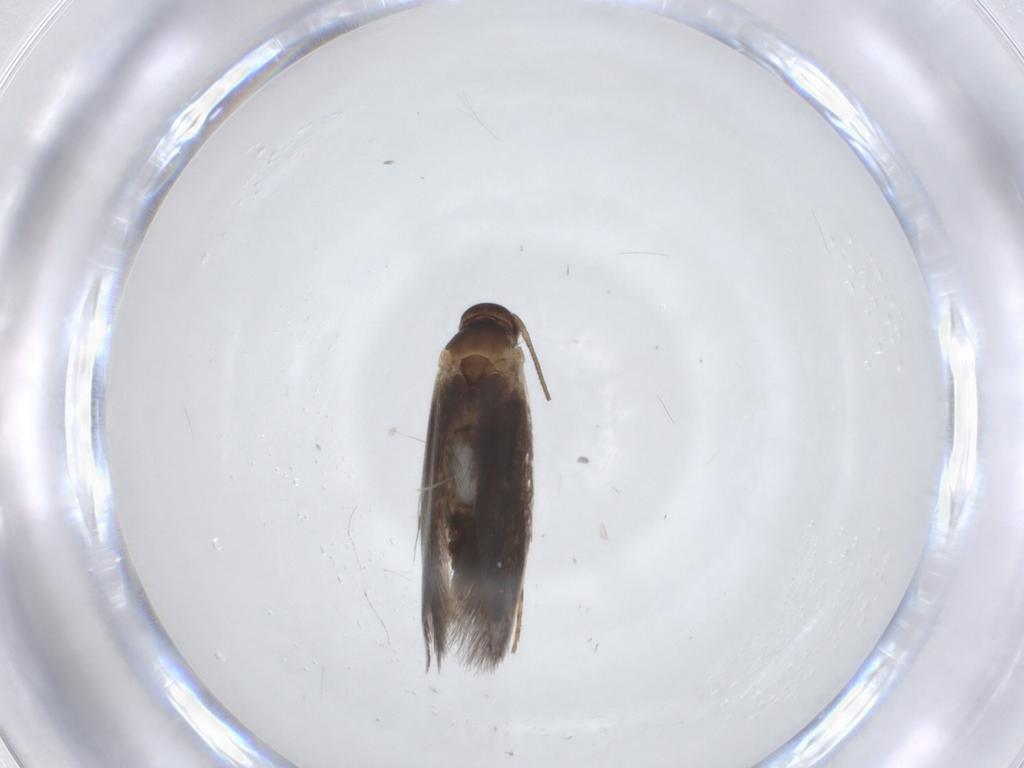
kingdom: Animalia
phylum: Arthropoda
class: Insecta
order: Lepidoptera
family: Elachistidae
